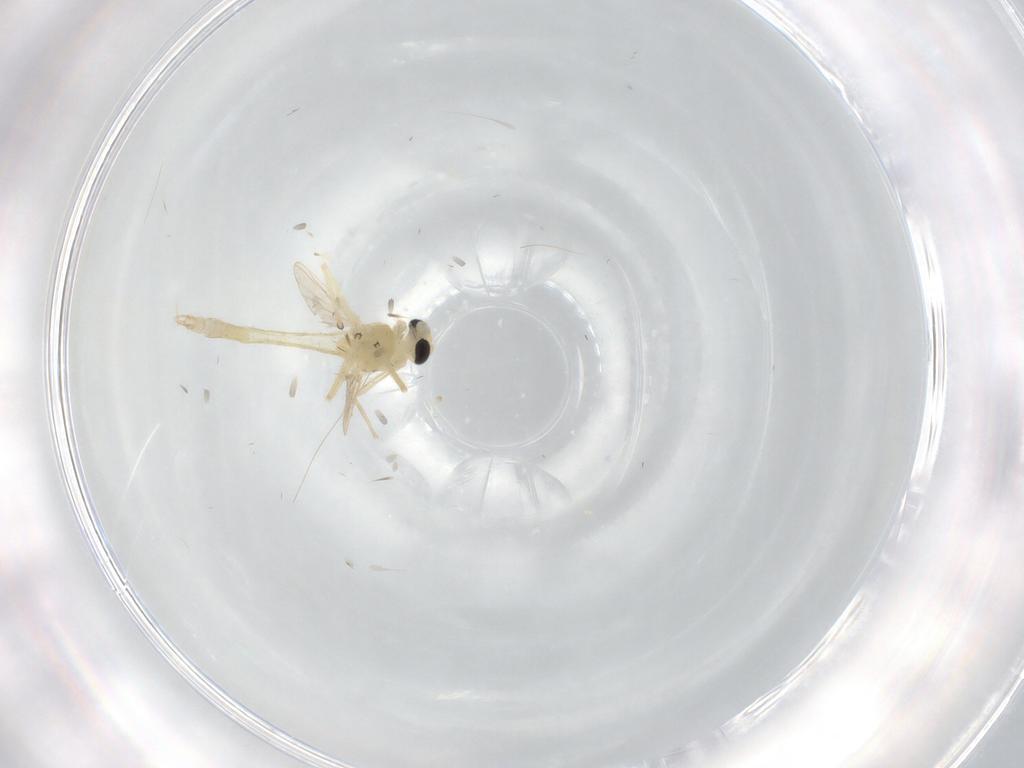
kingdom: Animalia
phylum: Arthropoda
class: Insecta
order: Diptera
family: Chironomidae
